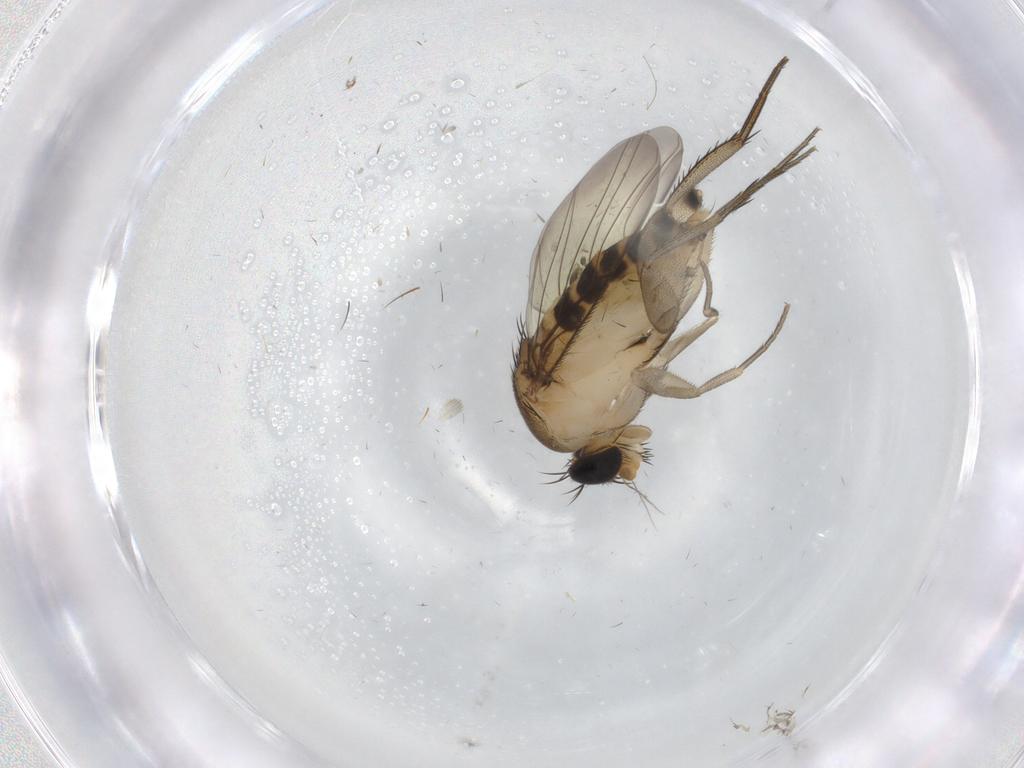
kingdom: Animalia
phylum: Arthropoda
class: Insecta
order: Diptera
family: Phoridae
